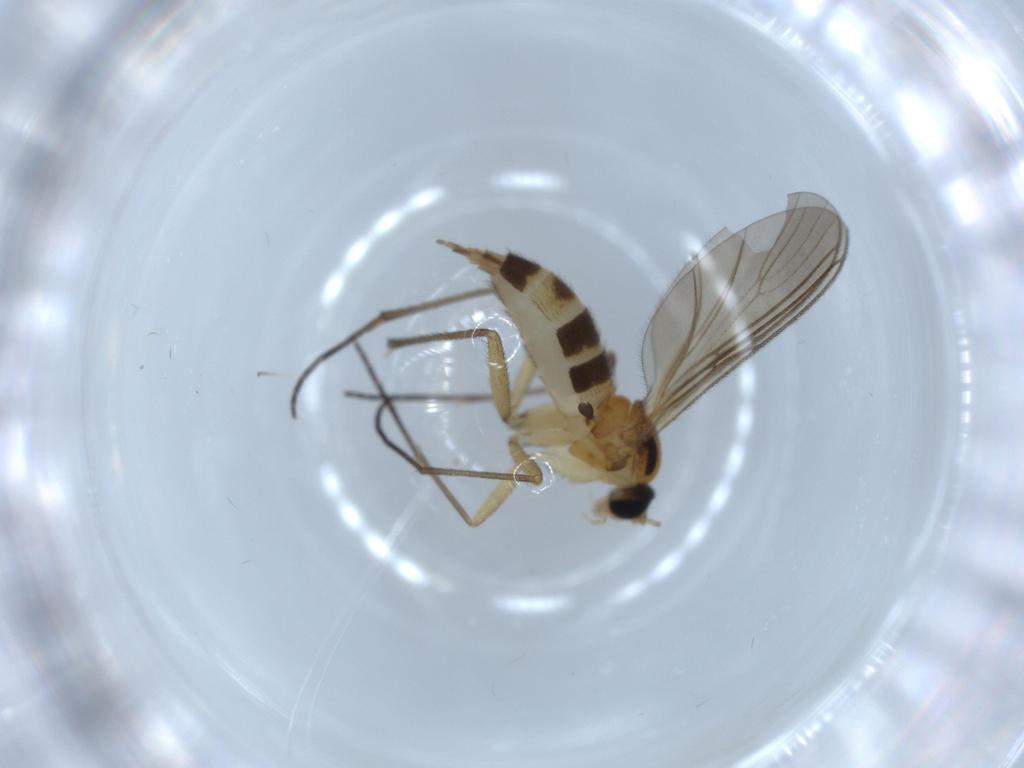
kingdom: Animalia
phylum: Arthropoda
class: Insecta
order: Diptera
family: Sciaridae
